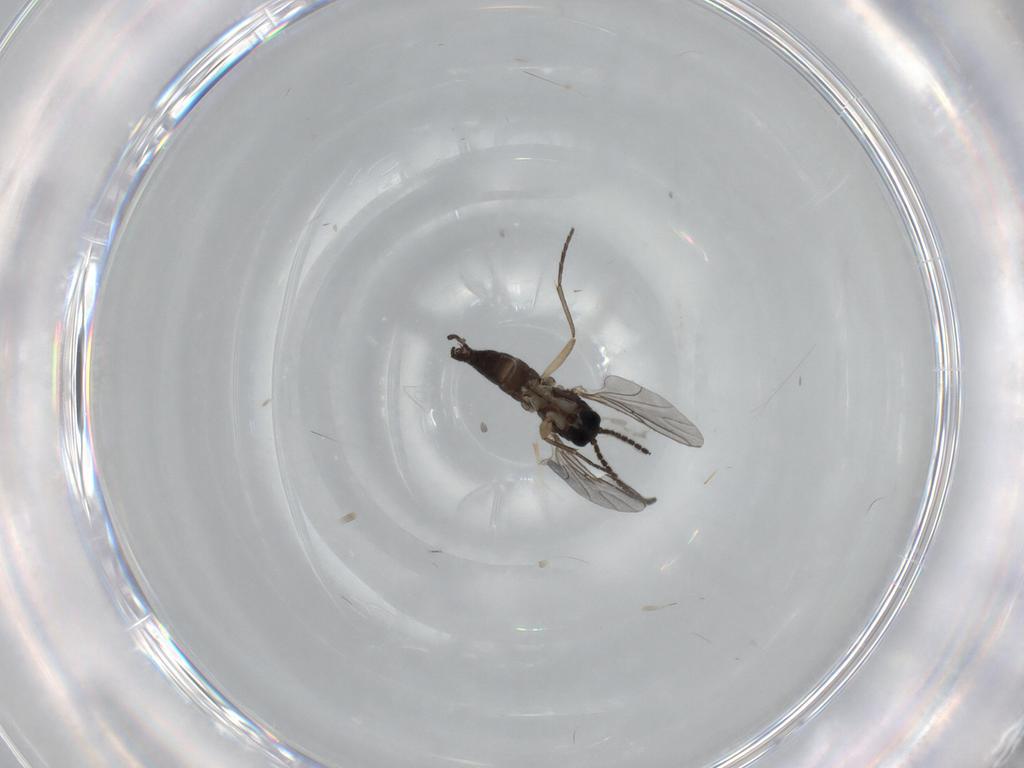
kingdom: Animalia
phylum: Arthropoda
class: Insecta
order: Diptera
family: Sciaridae
